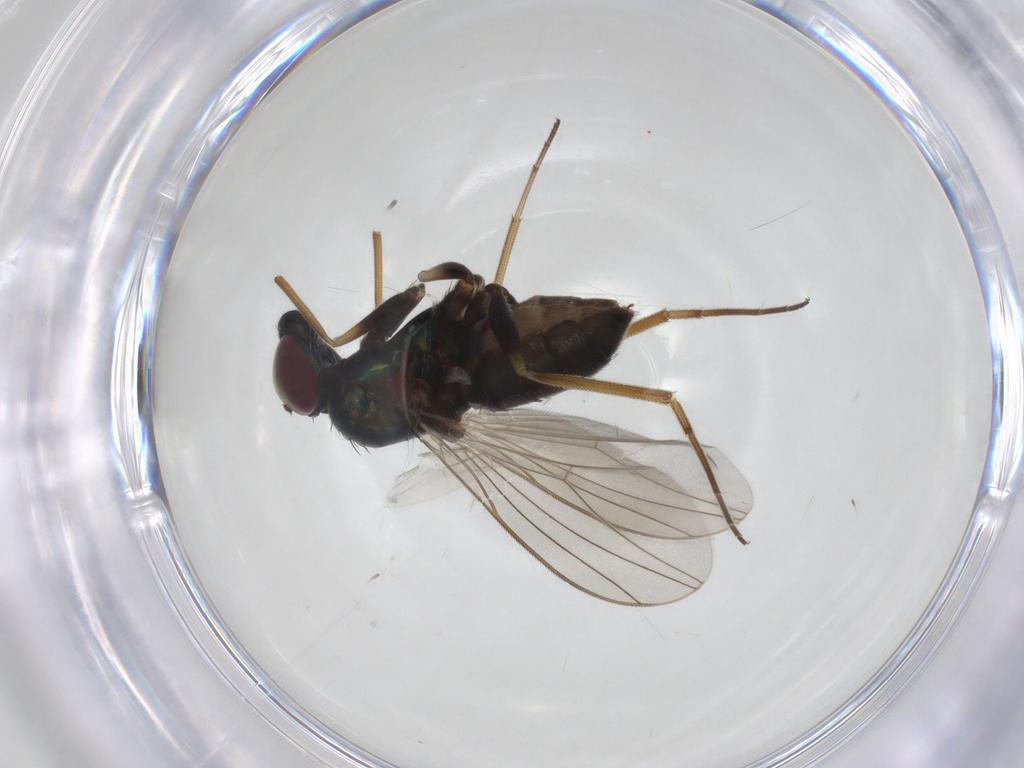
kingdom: Animalia
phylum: Arthropoda
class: Insecta
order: Diptera
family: Dolichopodidae
